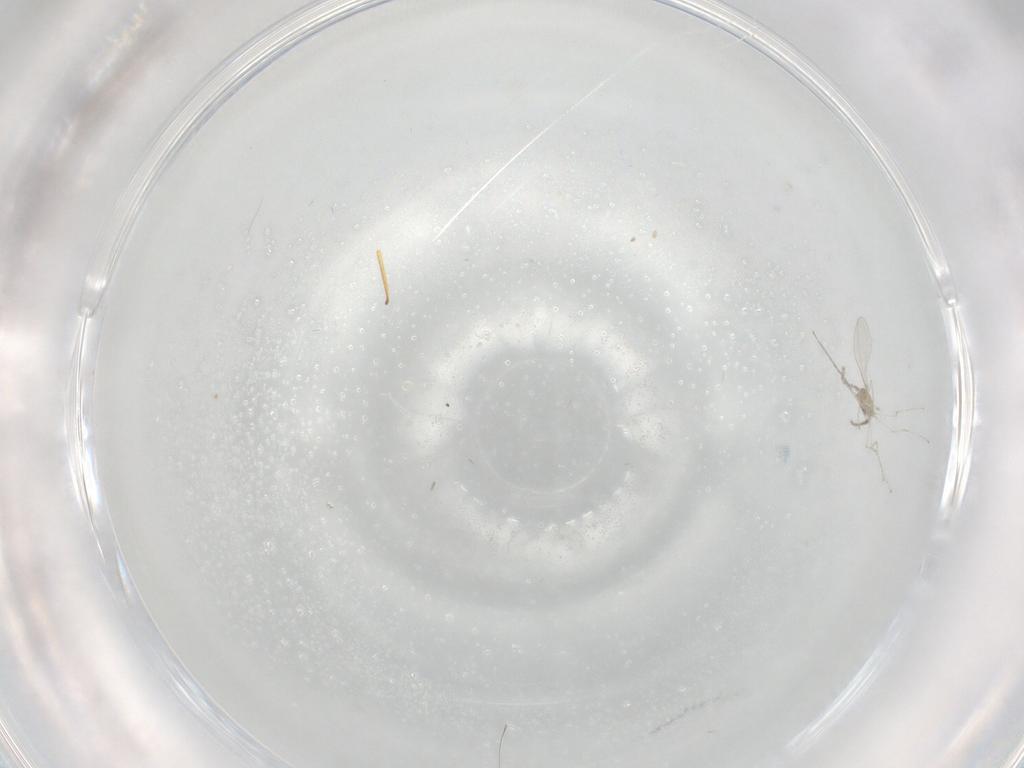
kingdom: Animalia
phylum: Arthropoda
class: Insecta
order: Diptera
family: Cecidomyiidae
